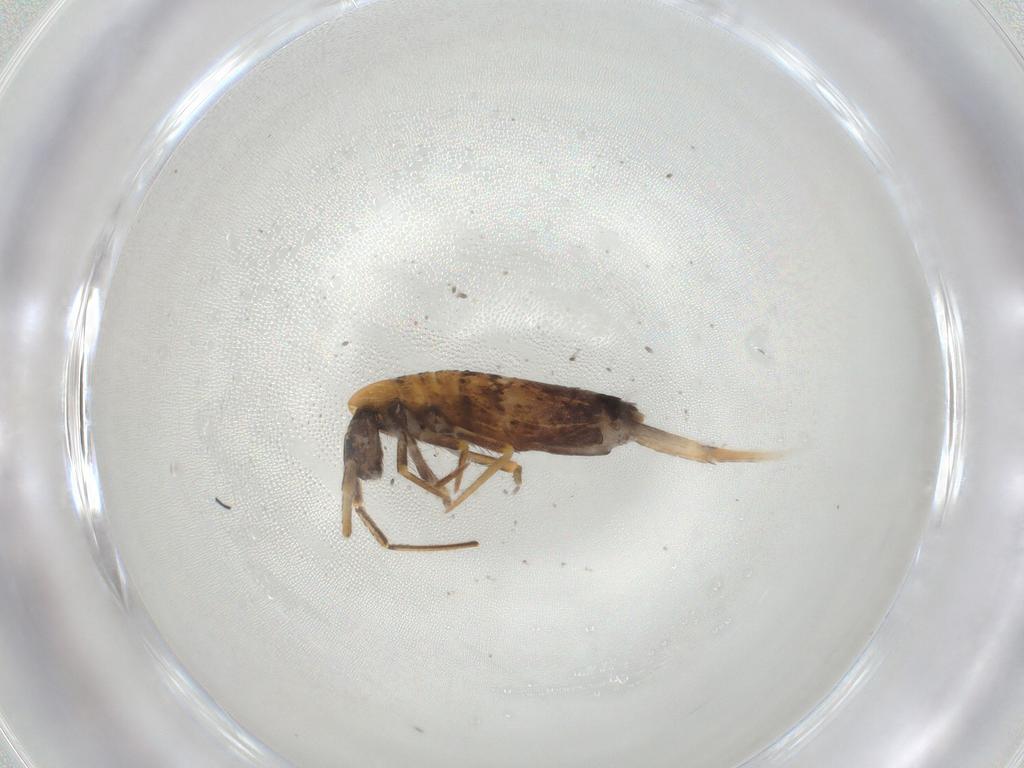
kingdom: Animalia
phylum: Arthropoda
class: Collembola
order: Entomobryomorpha
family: Entomobryidae
